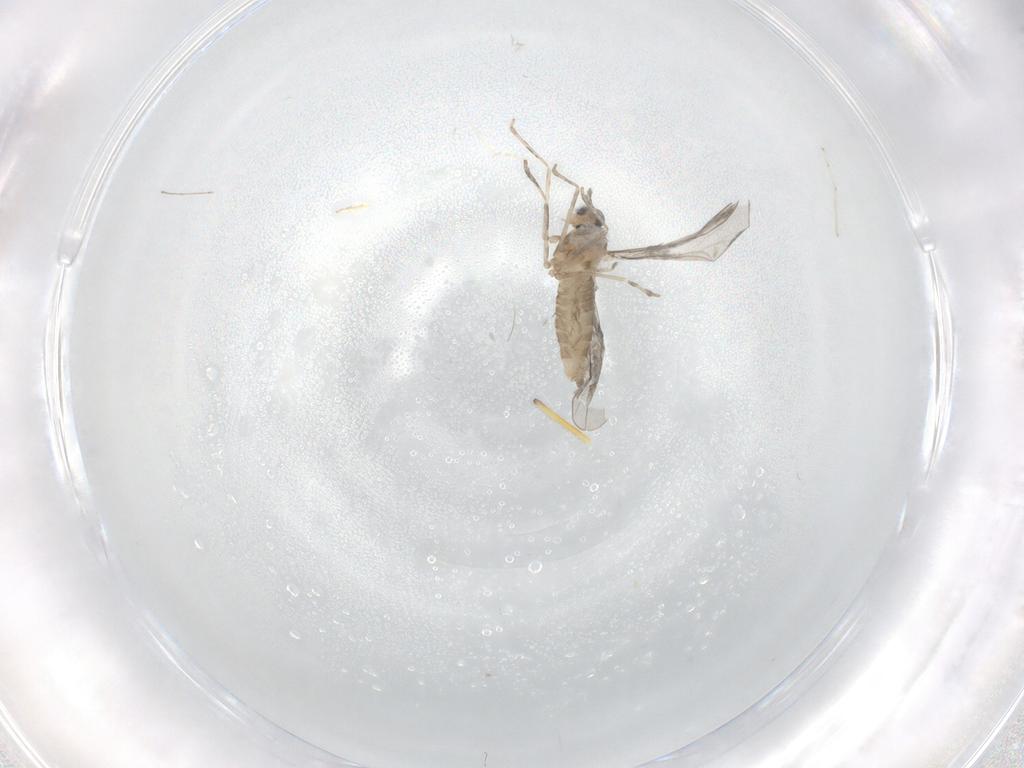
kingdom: Animalia
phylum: Arthropoda
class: Insecta
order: Diptera
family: Cecidomyiidae
